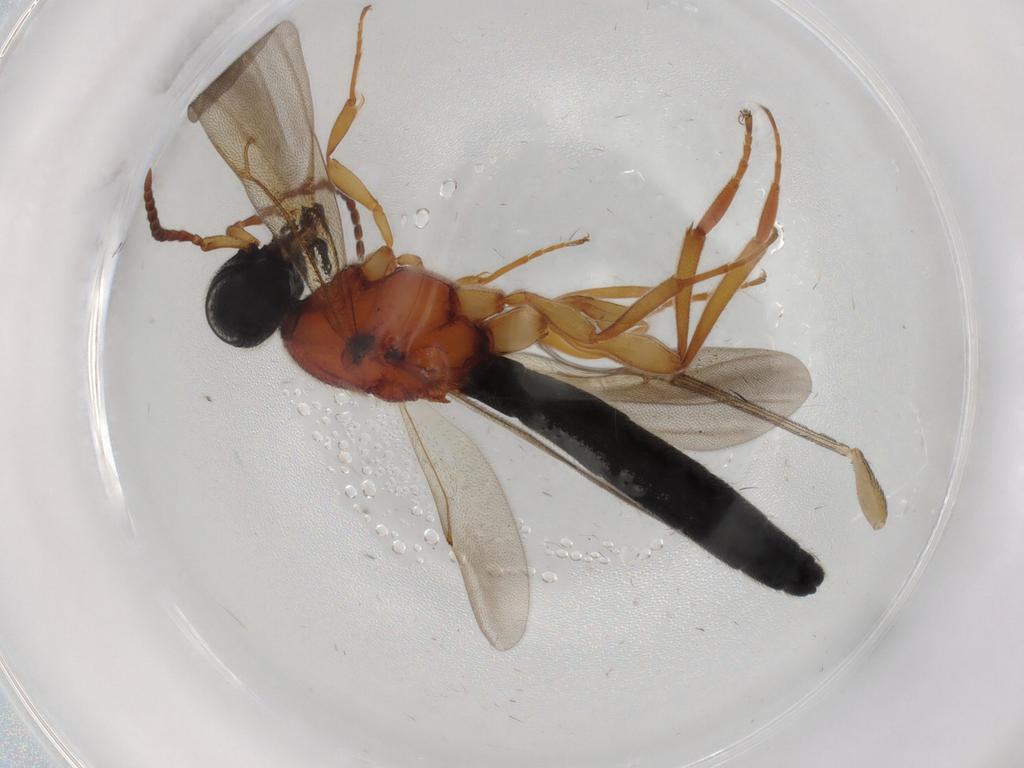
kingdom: Animalia
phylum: Arthropoda
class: Insecta
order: Hymenoptera
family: Scelionidae
